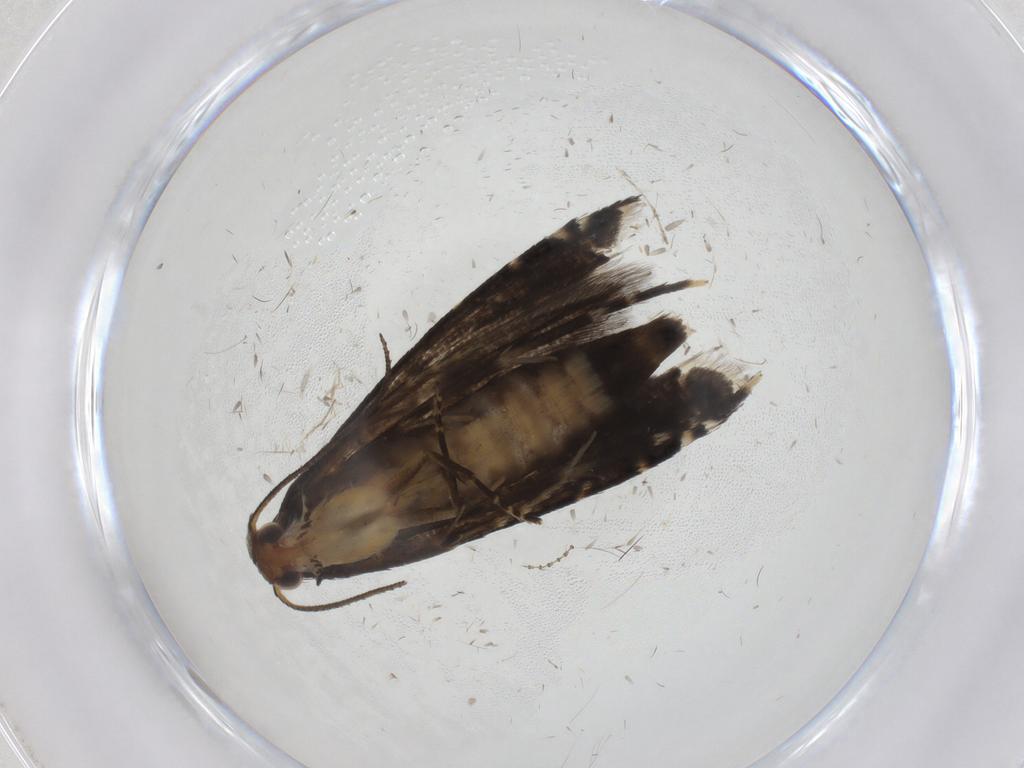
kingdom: Animalia
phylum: Arthropoda
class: Insecta
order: Lepidoptera
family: Glyphipterigidae
